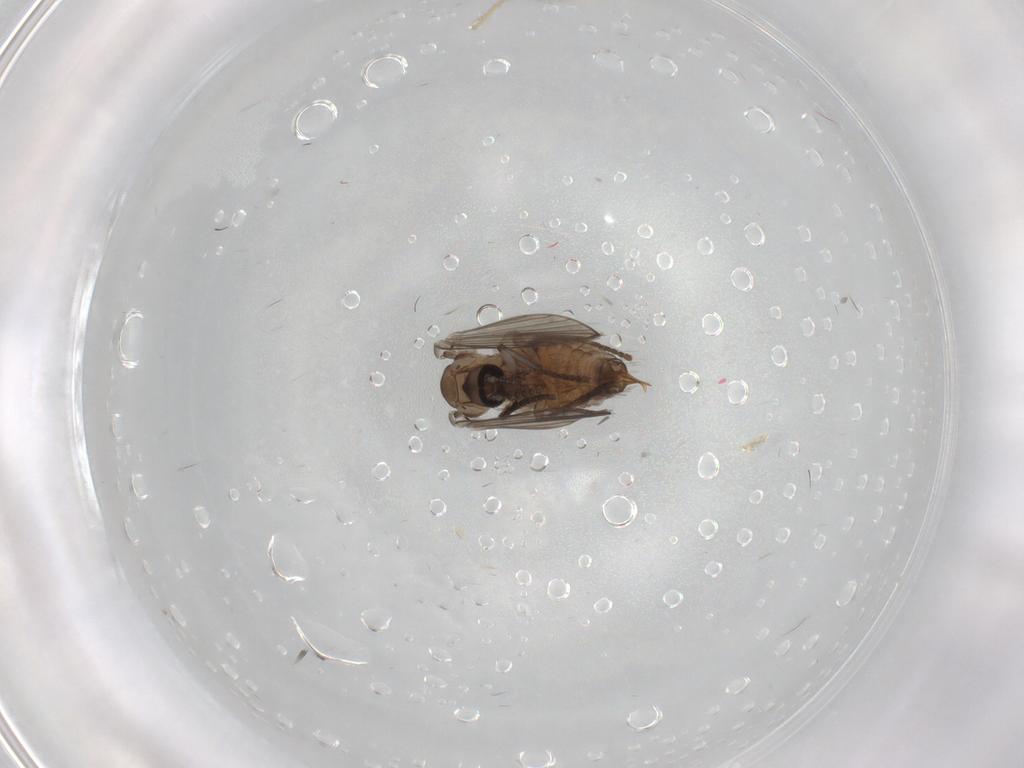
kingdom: Animalia
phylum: Arthropoda
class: Insecta
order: Diptera
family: Psychodidae
